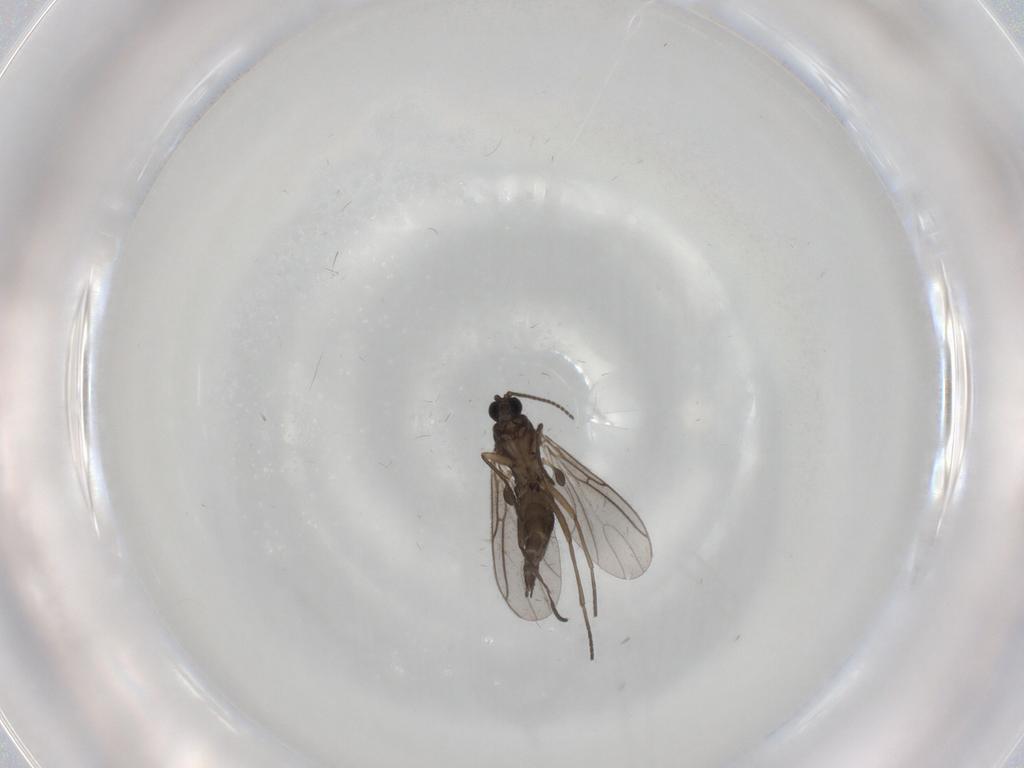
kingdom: Animalia
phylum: Arthropoda
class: Insecta
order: Diptera
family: Sciaridae
